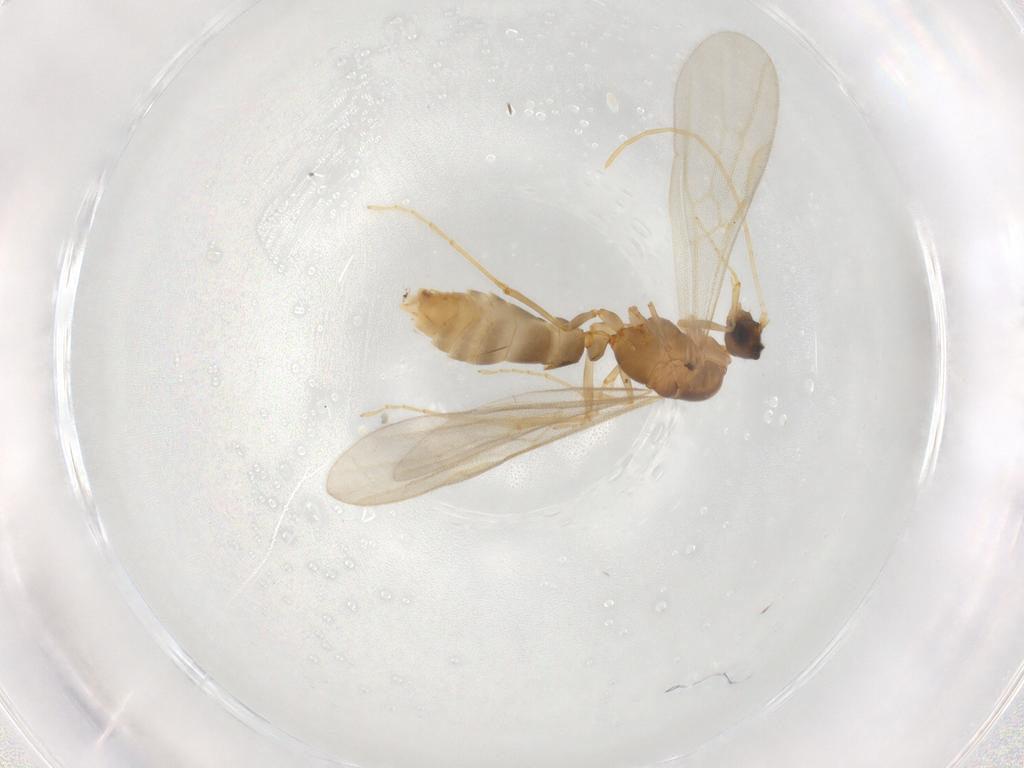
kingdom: Animalia
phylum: Arthropoda
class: Insecta
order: Hymenoptera
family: Formicidae
